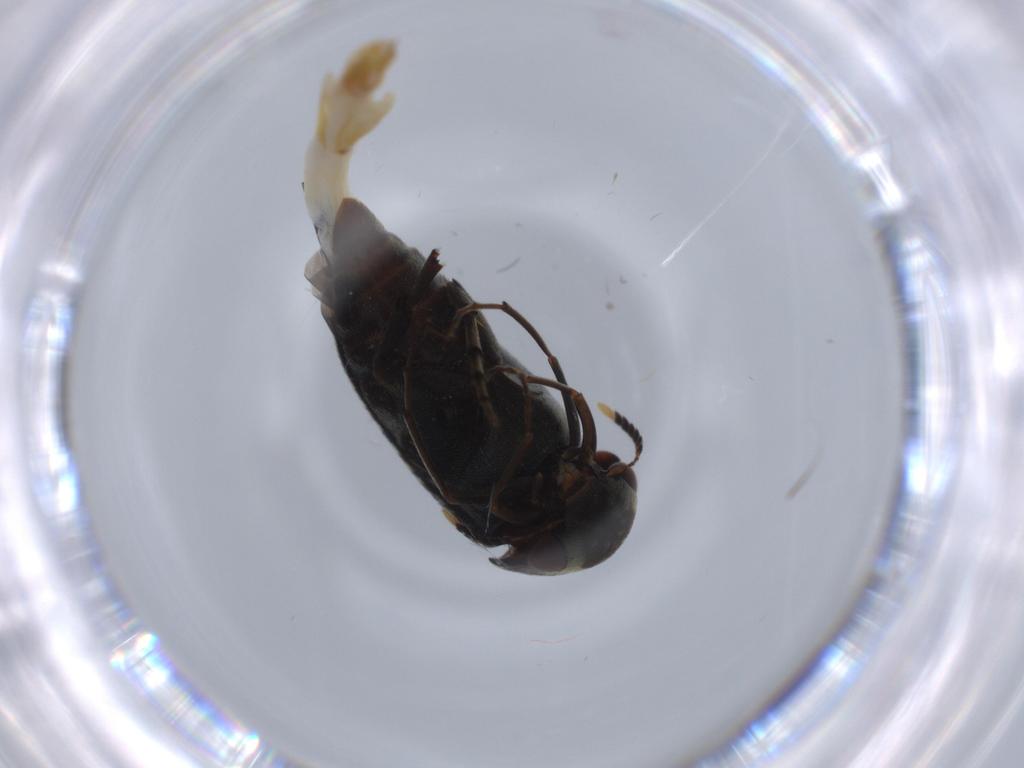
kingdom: Animalia
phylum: Arthropoda
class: Insecta
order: Coleoptera
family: Mordellidae
